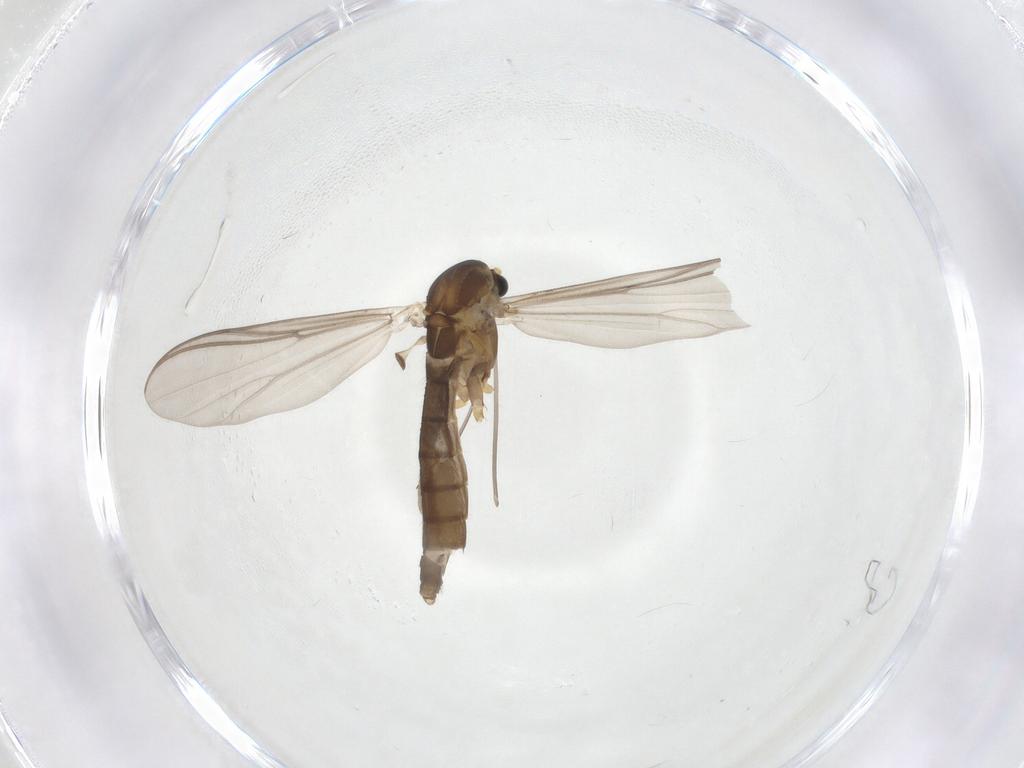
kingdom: Animalia
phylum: Arthropoda
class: Insecta
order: Diptera
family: Chironomidae
